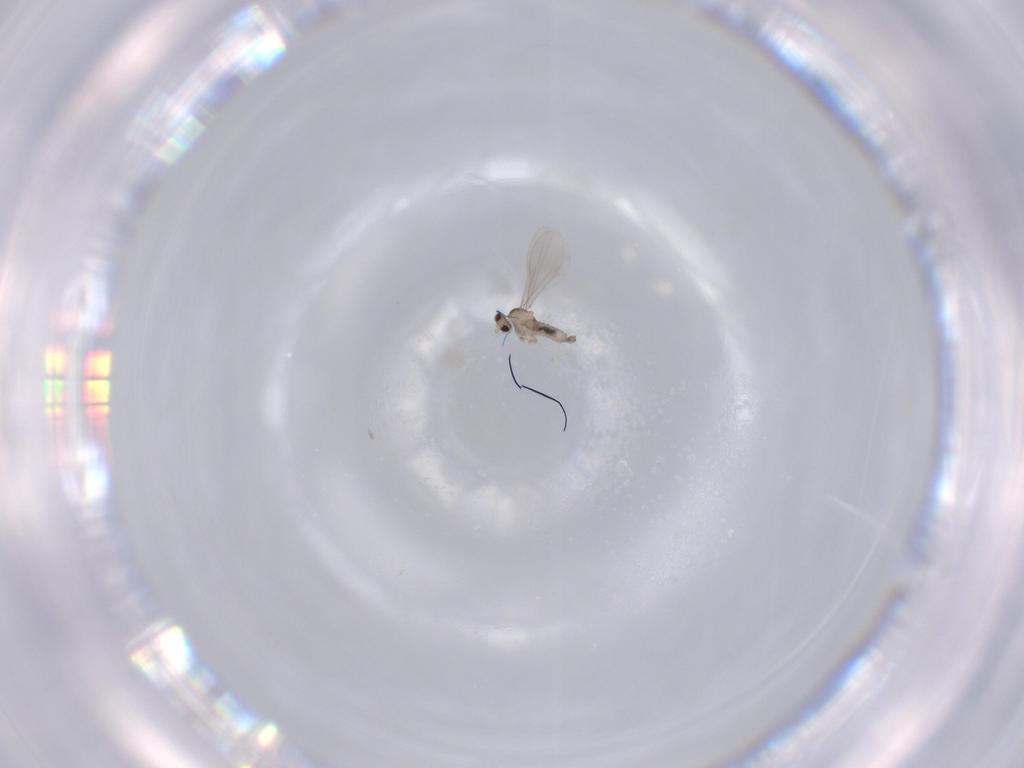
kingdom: Animalia
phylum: Arthropoda
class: Insecta
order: Diptera
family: Cecidomyiidae
